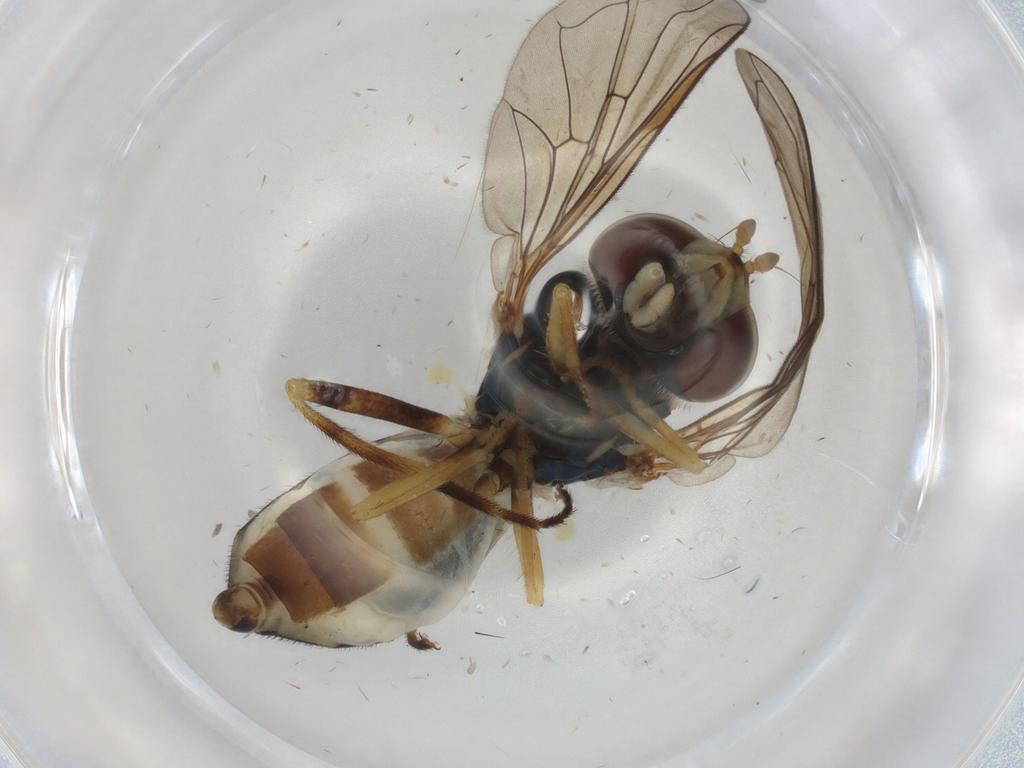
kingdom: Animalia
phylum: Arthropoda
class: Insecta
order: Diptera
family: Syrphidae
